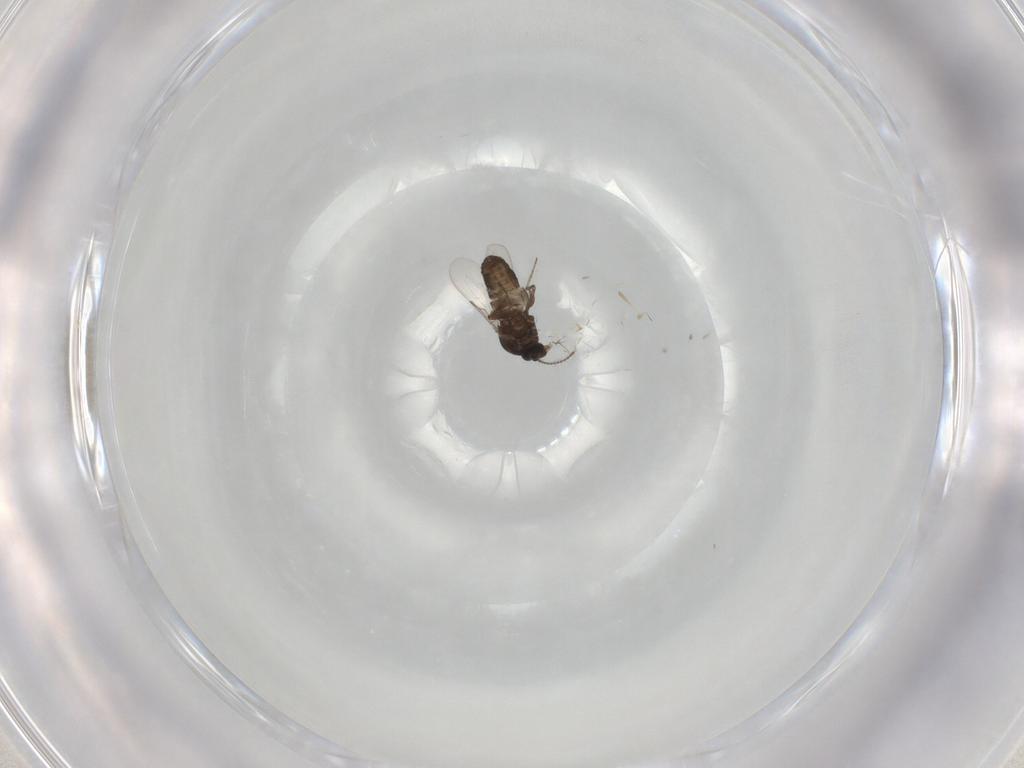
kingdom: Animalia
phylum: Arthropoda
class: Insecta
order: Diptera
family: Ceratopogonidae
